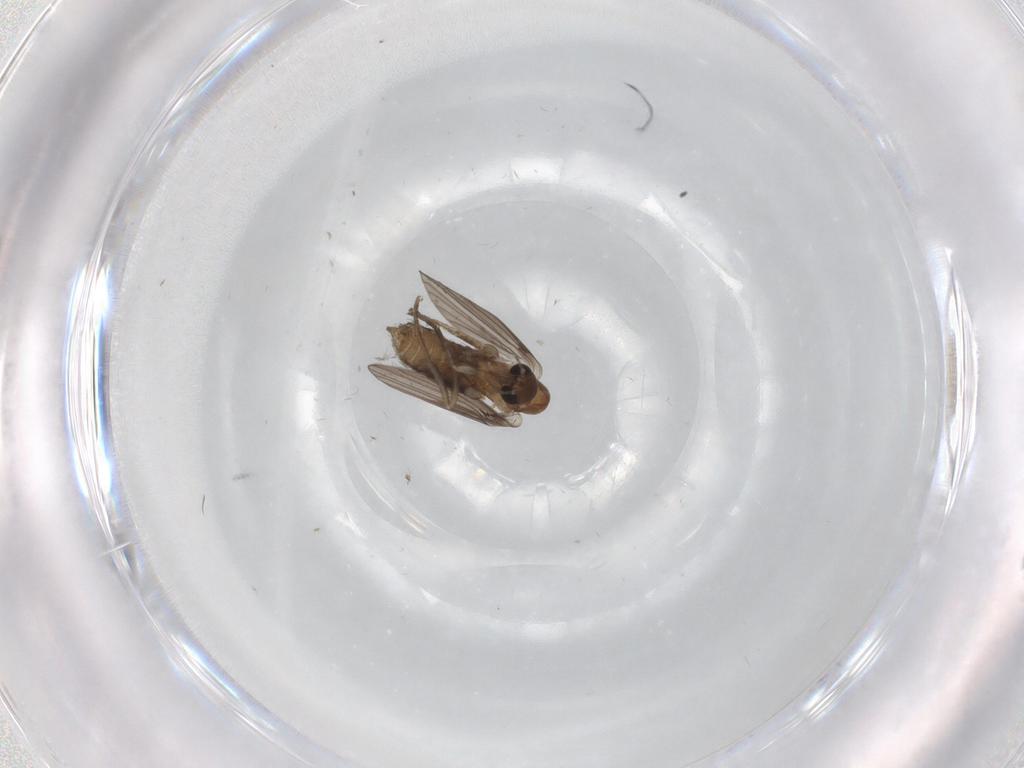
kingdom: Animalia
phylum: Arthropoda
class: Insecta
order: Diptera
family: Psychodidae
